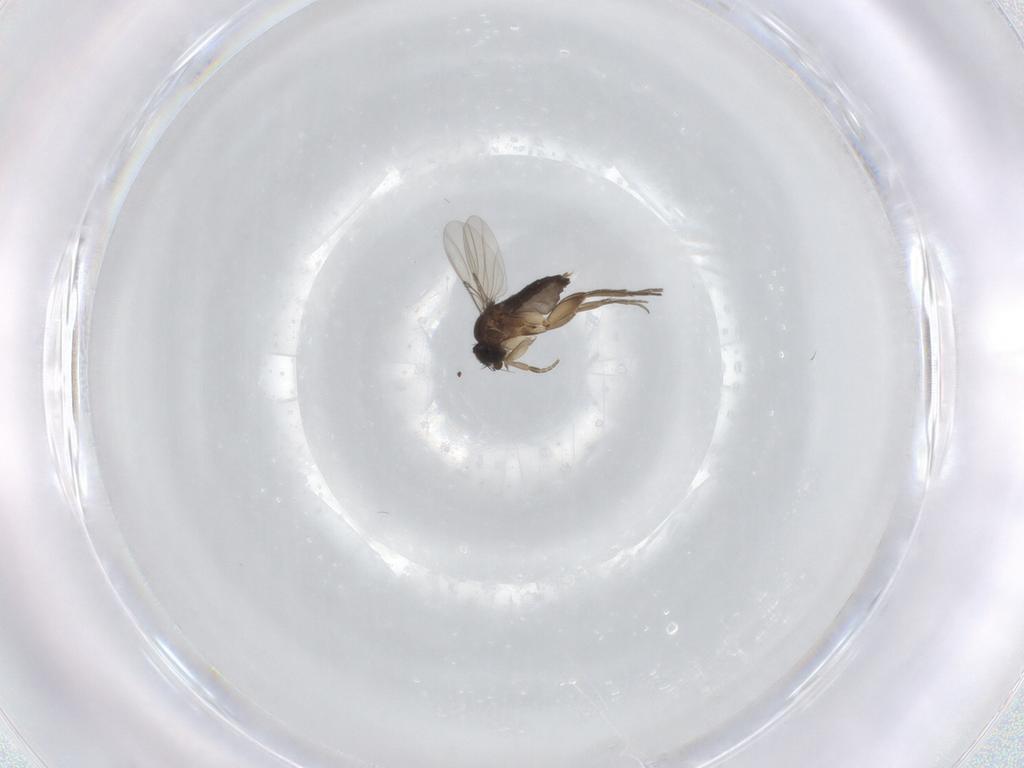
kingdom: Animalia
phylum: Arthropoda
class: Insecta
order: Diptera
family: Phoridae
